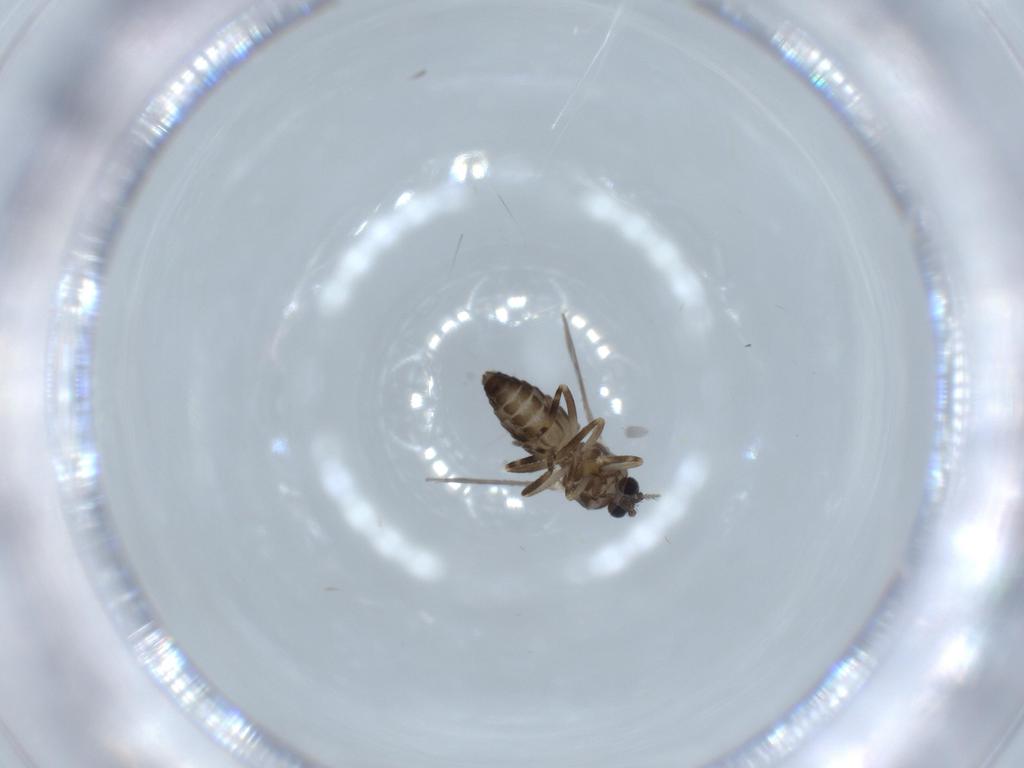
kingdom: Animalia
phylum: Arthropoda
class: Insecta
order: Diptera
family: Ceratopogonidae
